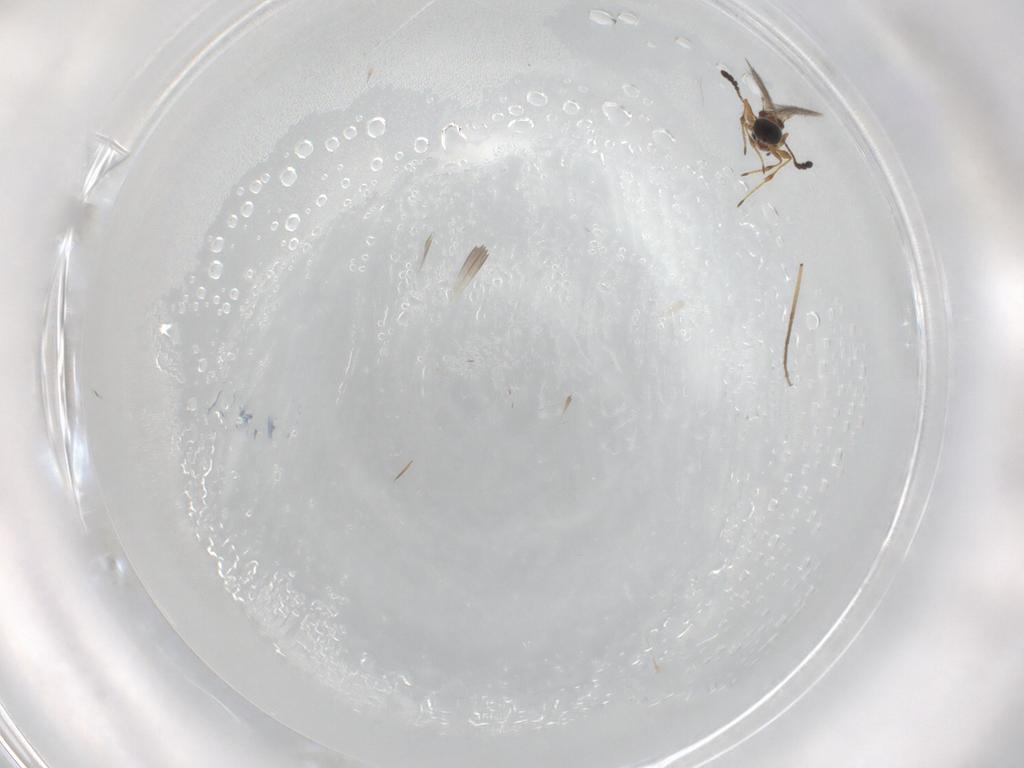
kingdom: Animalia
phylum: Arthropoda
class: Insecta
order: Hymenoptera
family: Diapriidae
